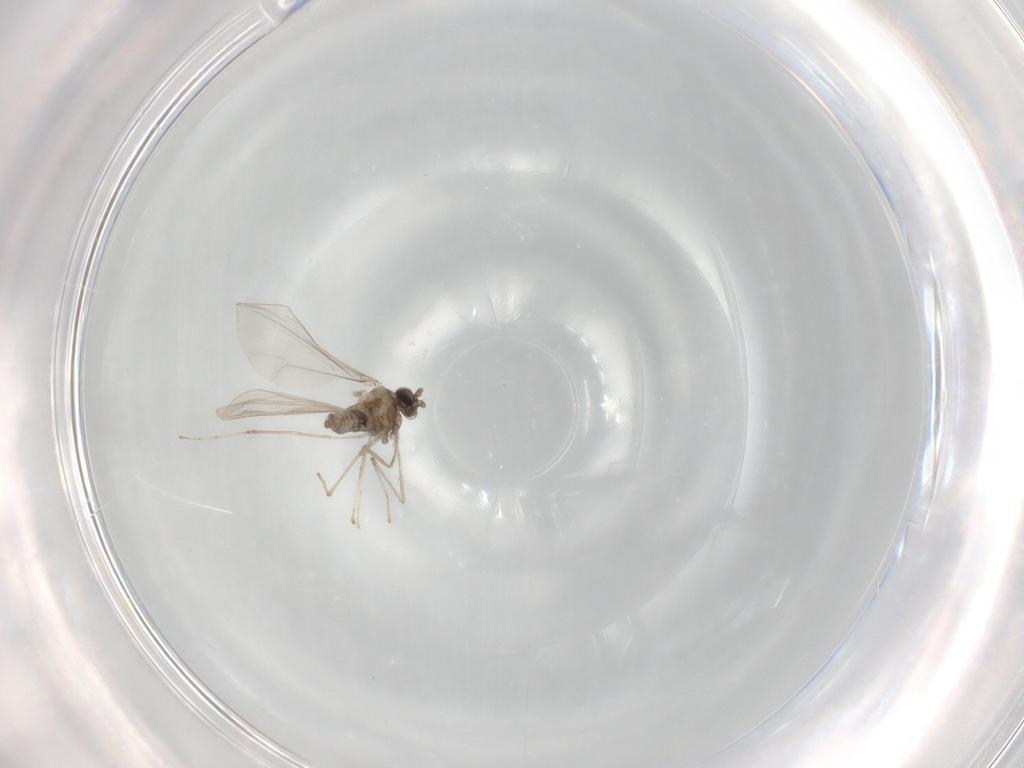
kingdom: Animalia
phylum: Arthropoda
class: Insecta
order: Diptera
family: Cecidomyiidae
